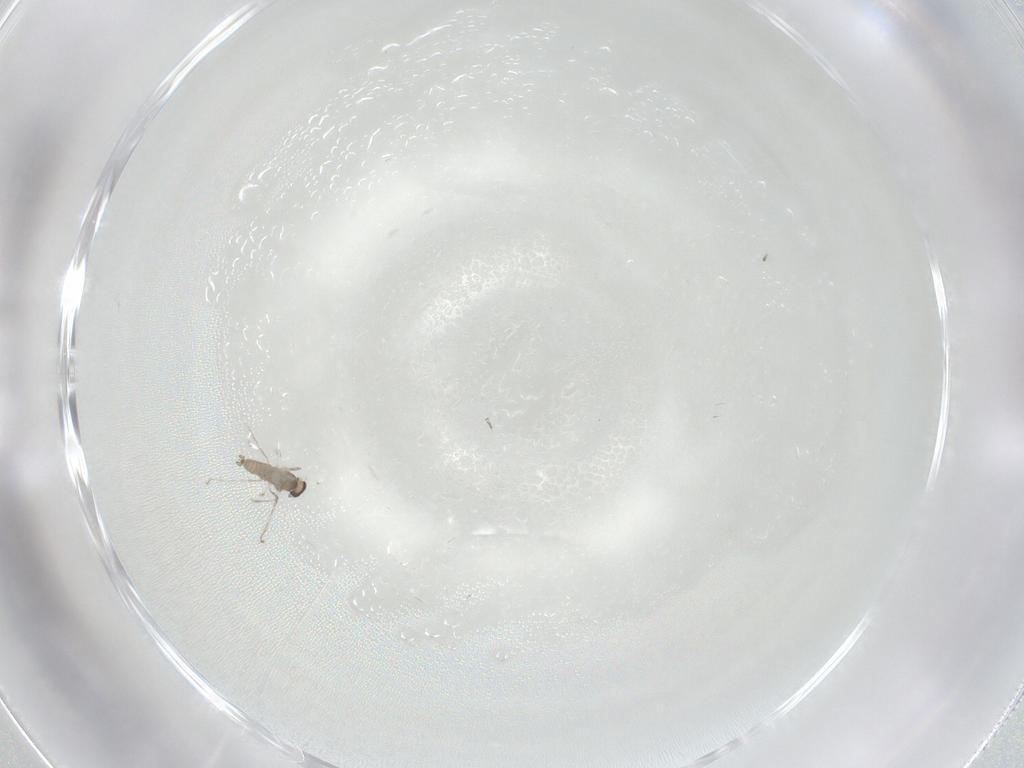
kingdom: Animalia
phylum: Arthropoda
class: Insecta
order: Diptera
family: Cecidomyiidae
